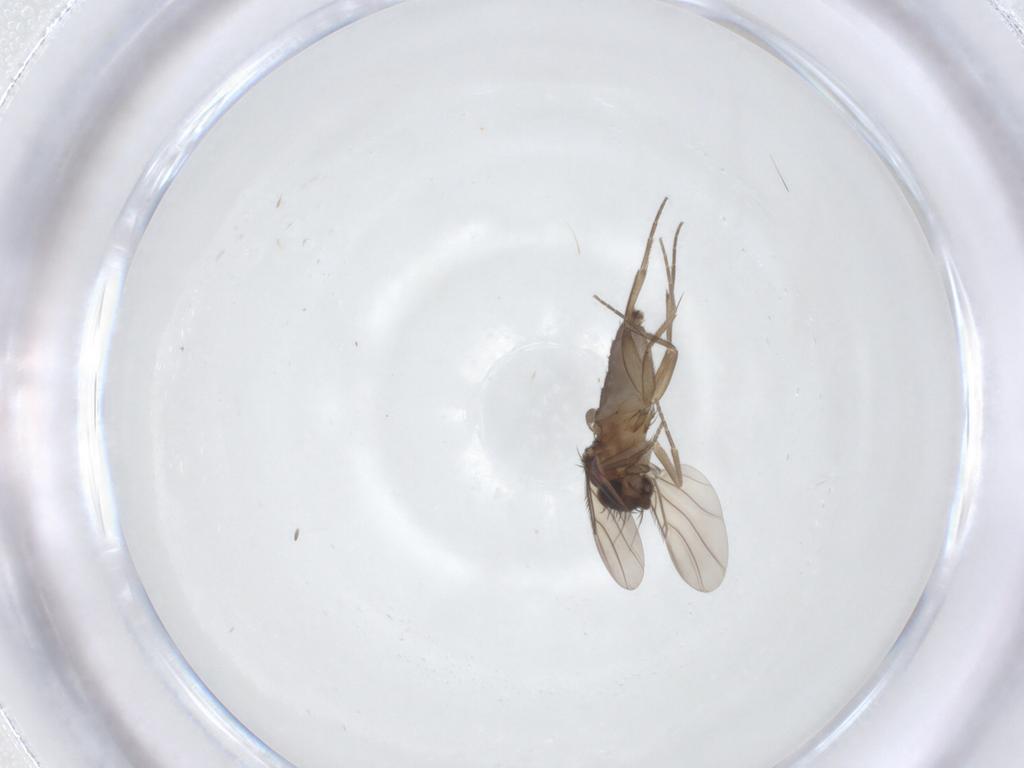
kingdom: Animalia
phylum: Arthropoda
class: Insecta
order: Diptera
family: Phoridae
